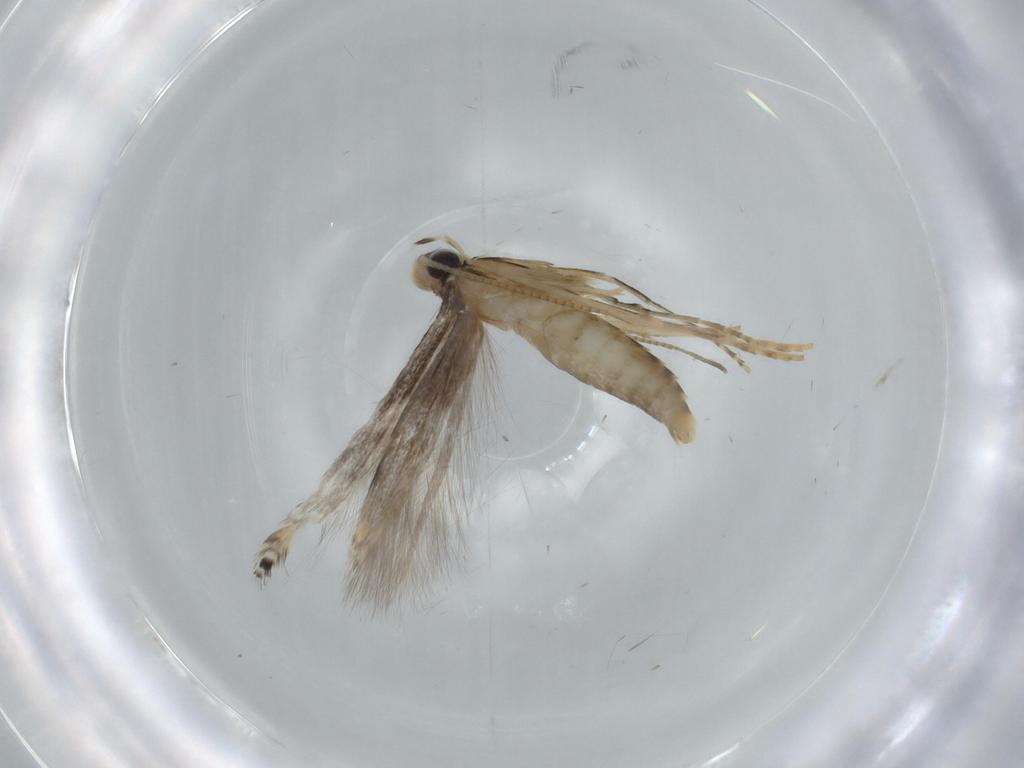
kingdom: Animalia
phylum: Arthropoda
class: Insecta
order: Lepidoptera
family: Gracillariidae
